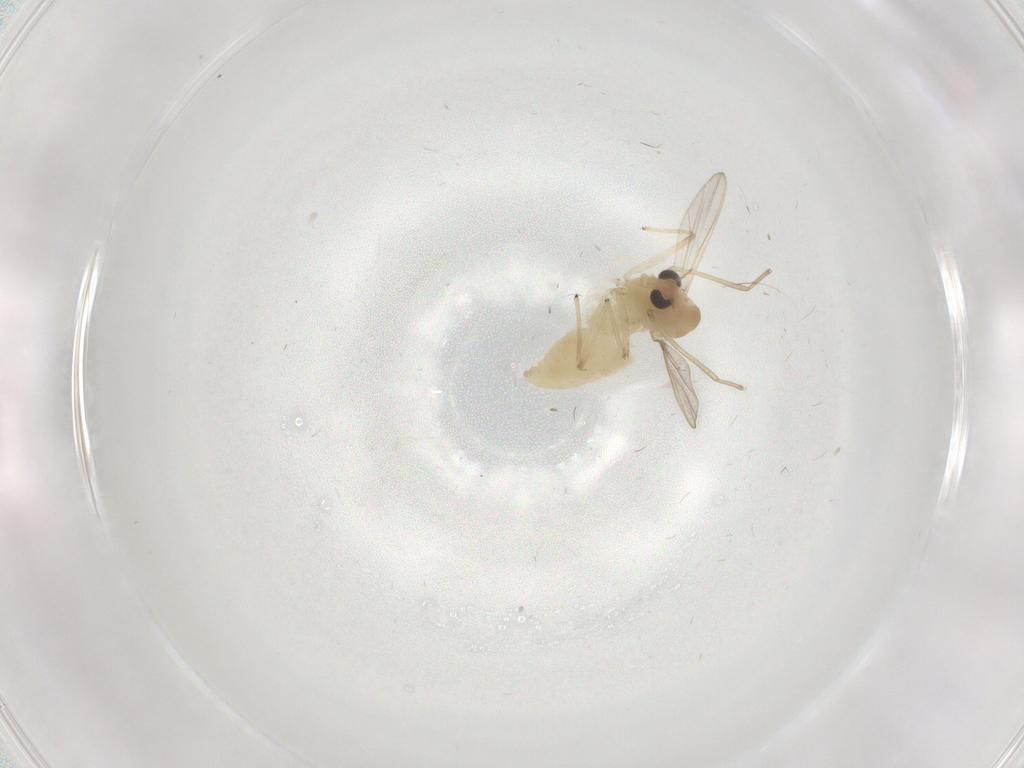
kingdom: Animalia
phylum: Arthropoda
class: Insecta
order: Diptera
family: Chironomidae
